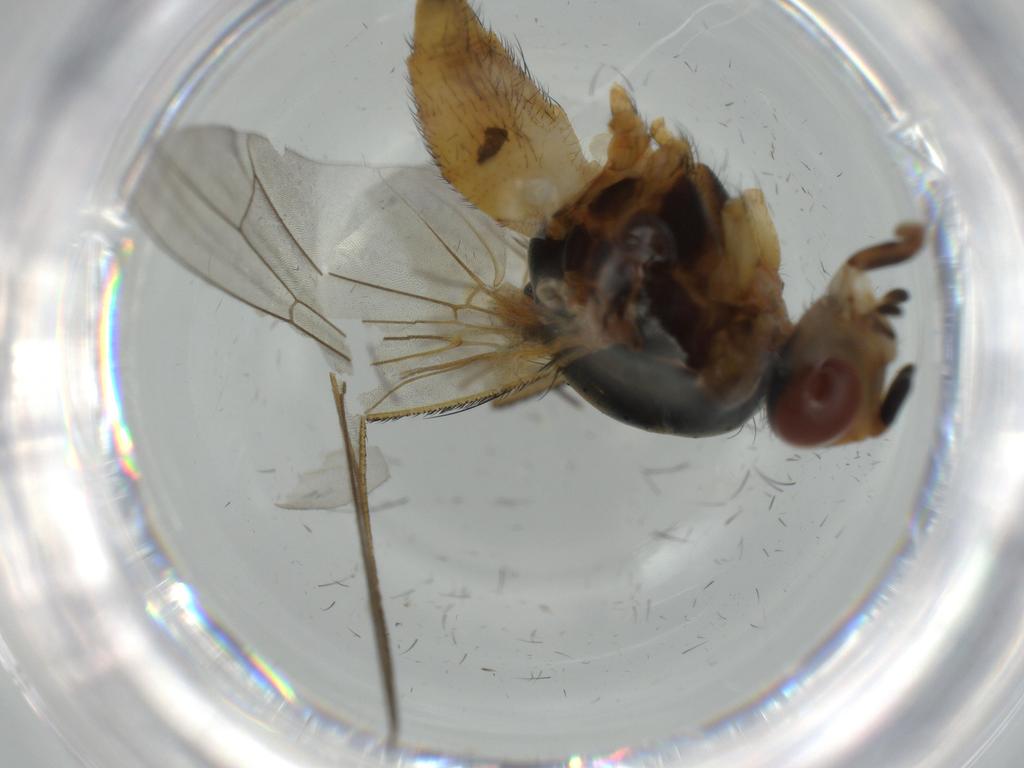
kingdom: Animalia
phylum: Arthropoda
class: Insecta
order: Diptera
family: Chironomidae
